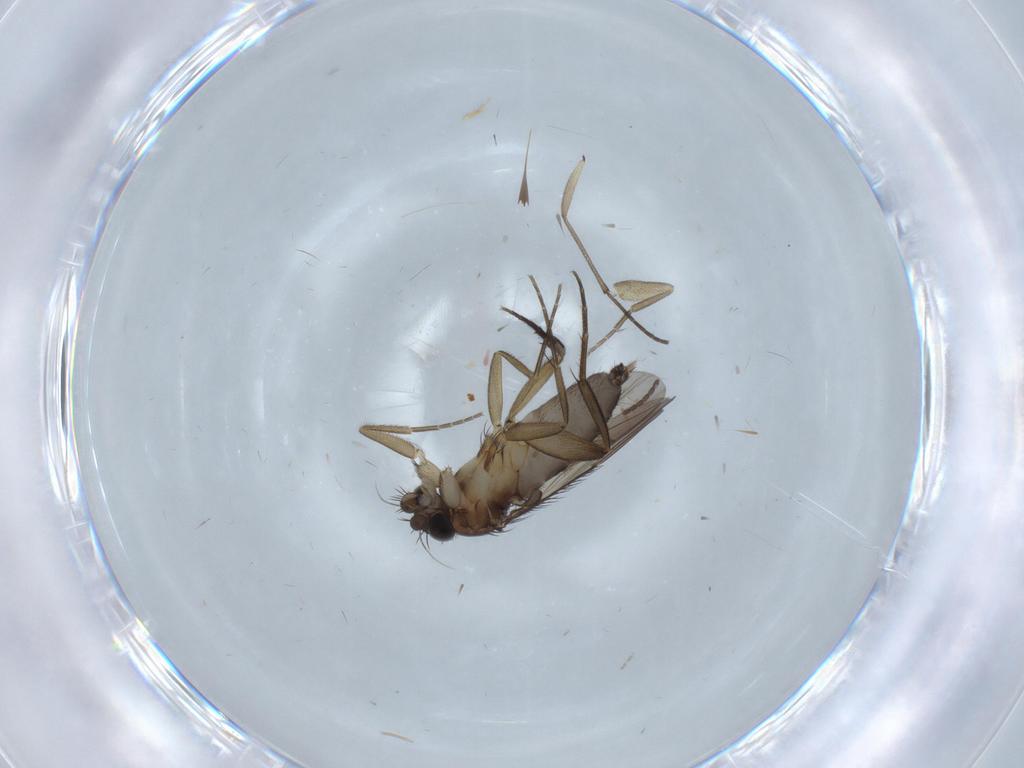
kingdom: Animalia
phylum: Arthropoda
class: Insecta
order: Diptera
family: Phoridae
